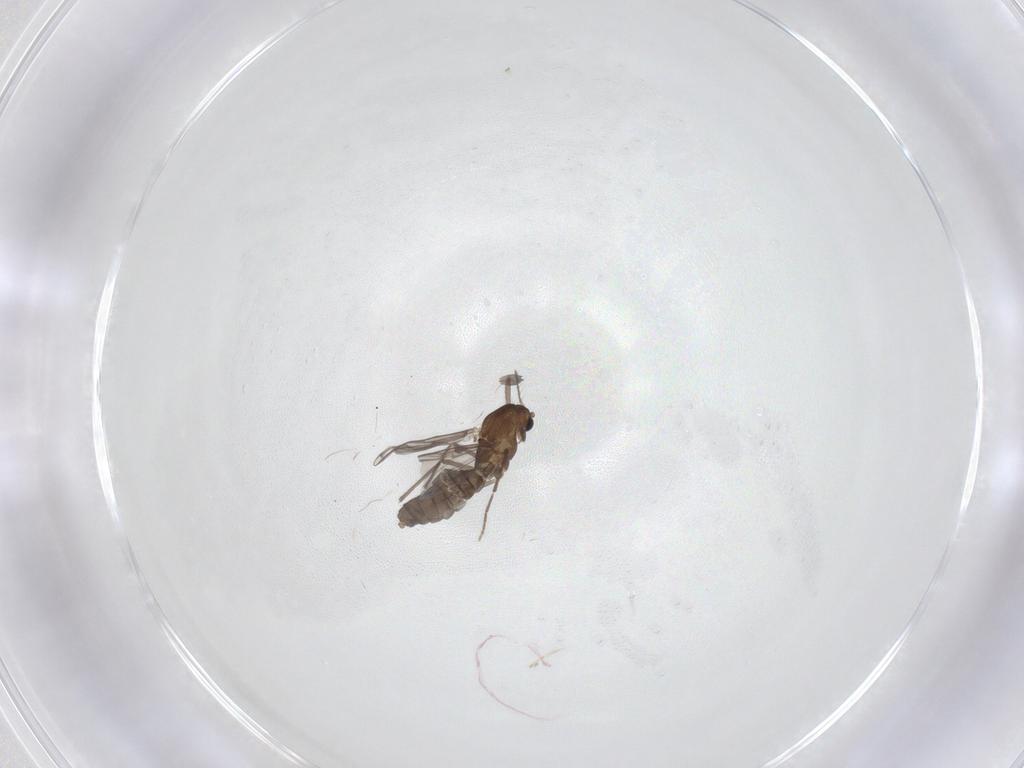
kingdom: Animalia
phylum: Arthropoda
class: Insecta
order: Diptera
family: Chironomidae
